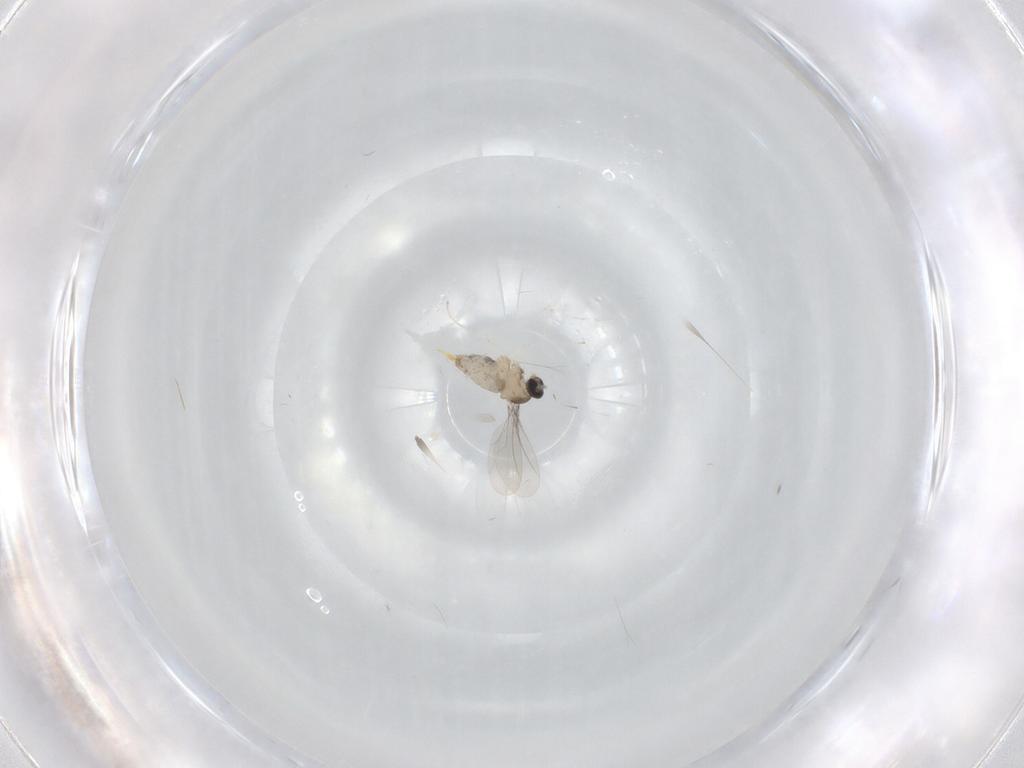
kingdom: Animalia
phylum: Arthropoda
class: Insecta
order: Diptera
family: Cecidomyiidae
